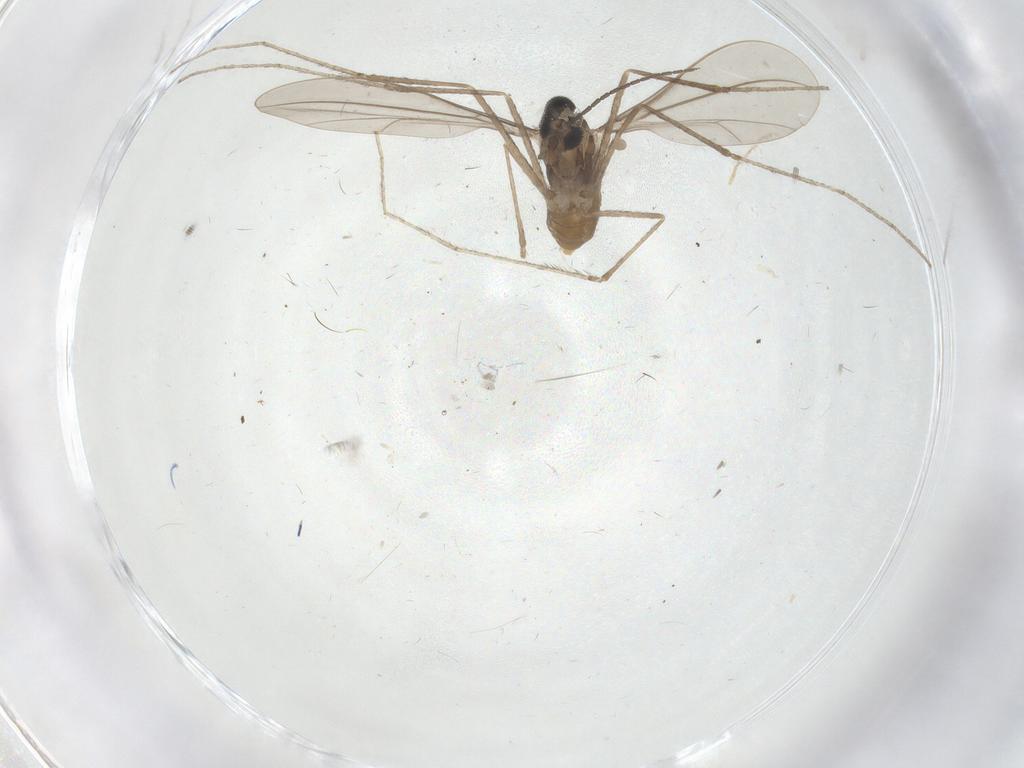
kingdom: Animalia
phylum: Arthropoda
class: Insecta
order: Diptera
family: Cecidomyiidae
